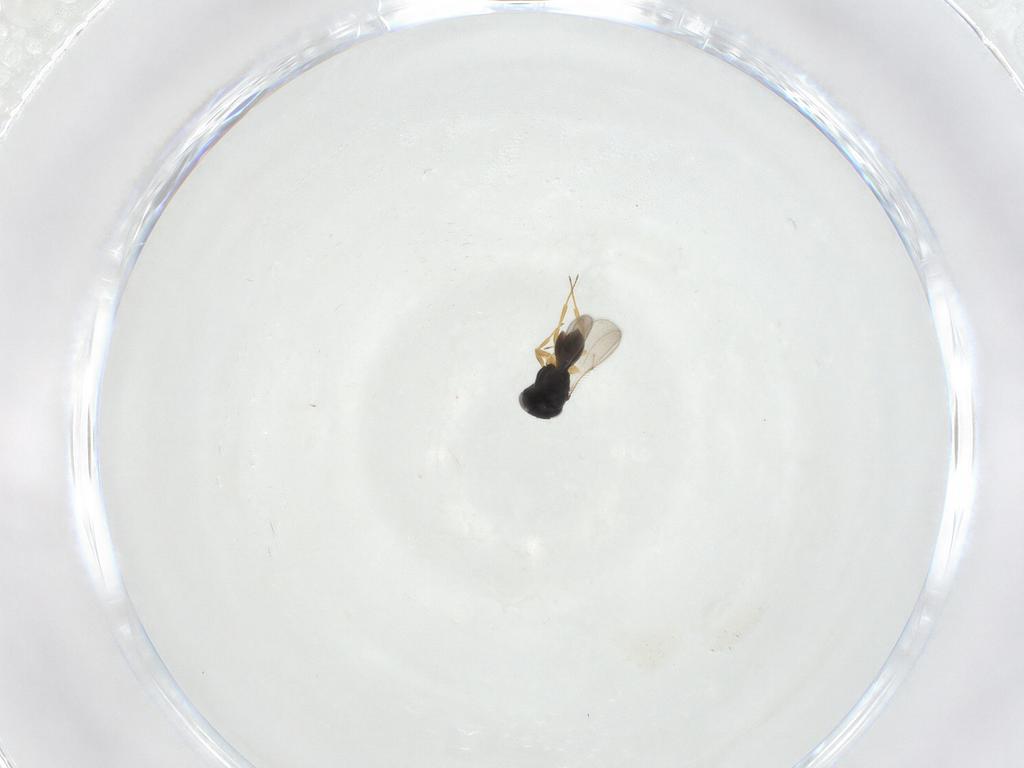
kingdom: Animalia
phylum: Arthropoda
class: Insecta
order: Hymenoptera
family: Scelionidae
